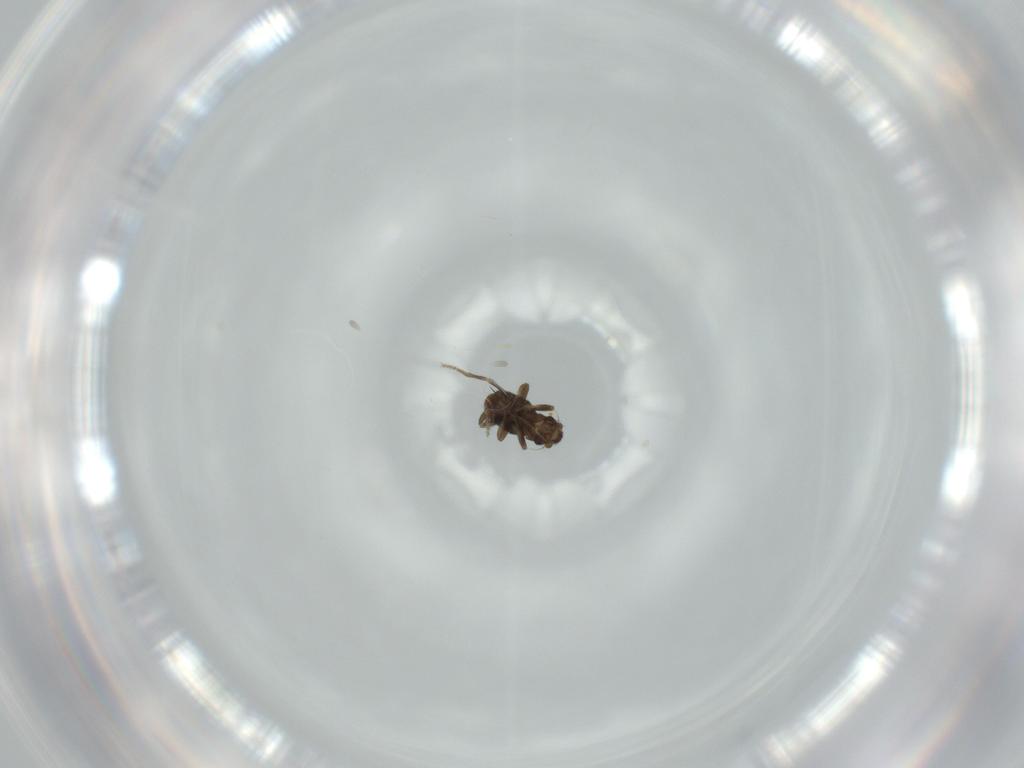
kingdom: Animalia
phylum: Arthropoda
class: Insecta
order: Diptera
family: Phoridae
